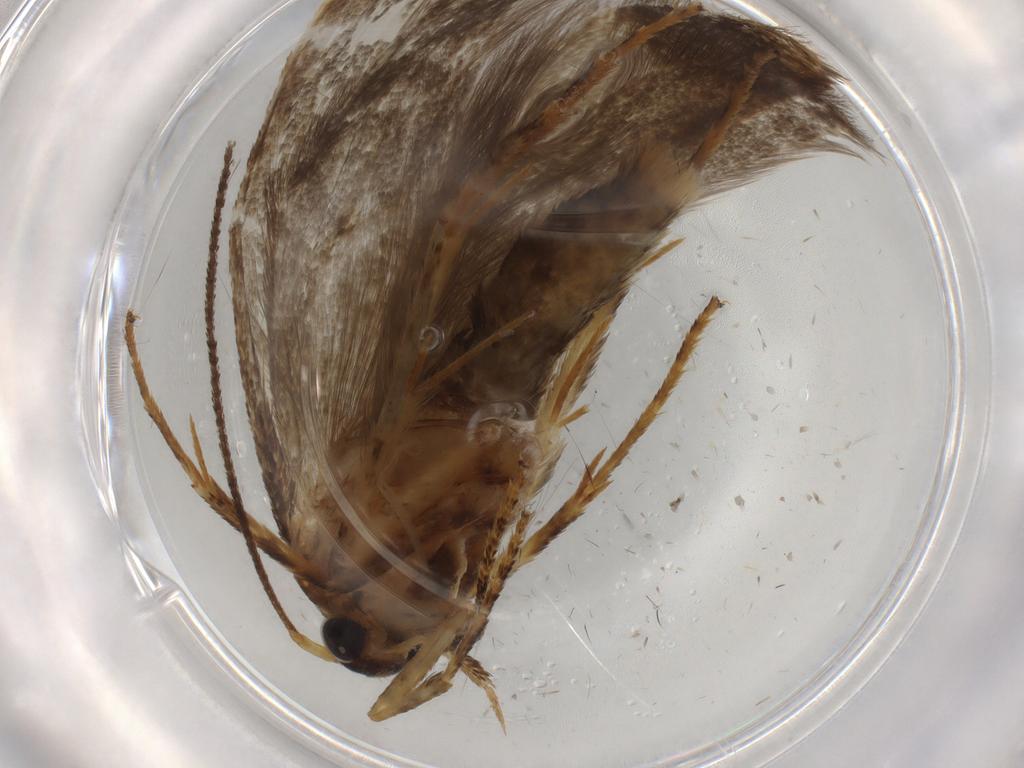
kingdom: Animalia
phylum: Arthropoda
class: Insecta
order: Lepidoptera
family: Blastobasidae
